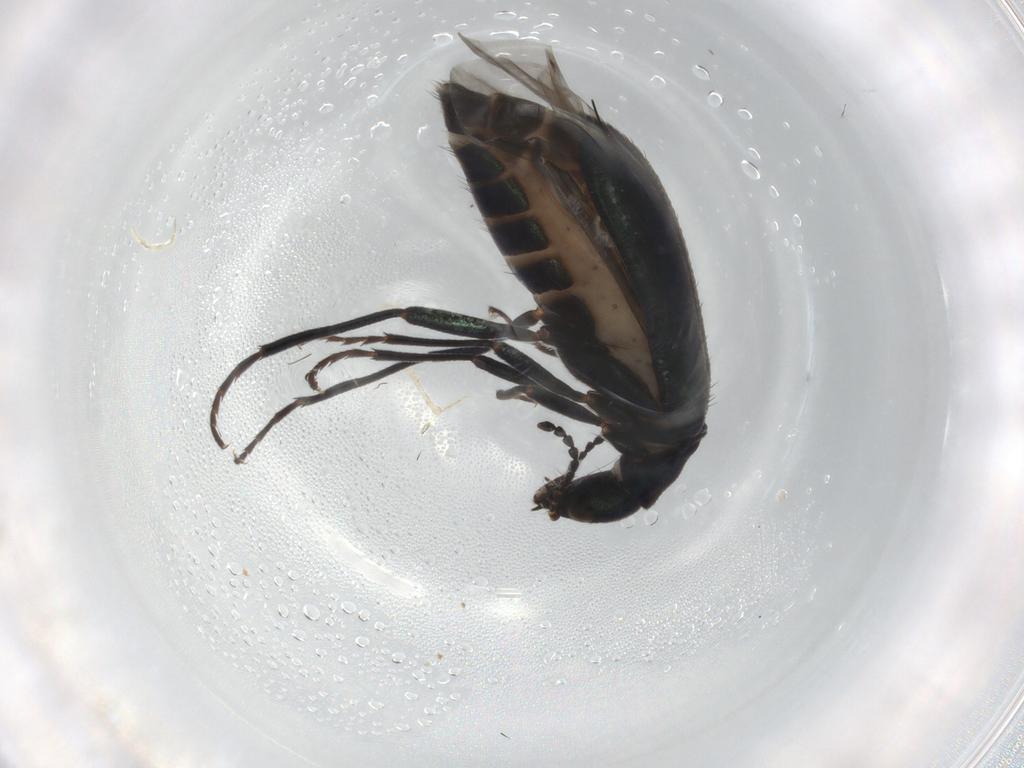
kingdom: Animalia
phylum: Arthropoda
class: Insecta
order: Coleoptera
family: Melyridae
